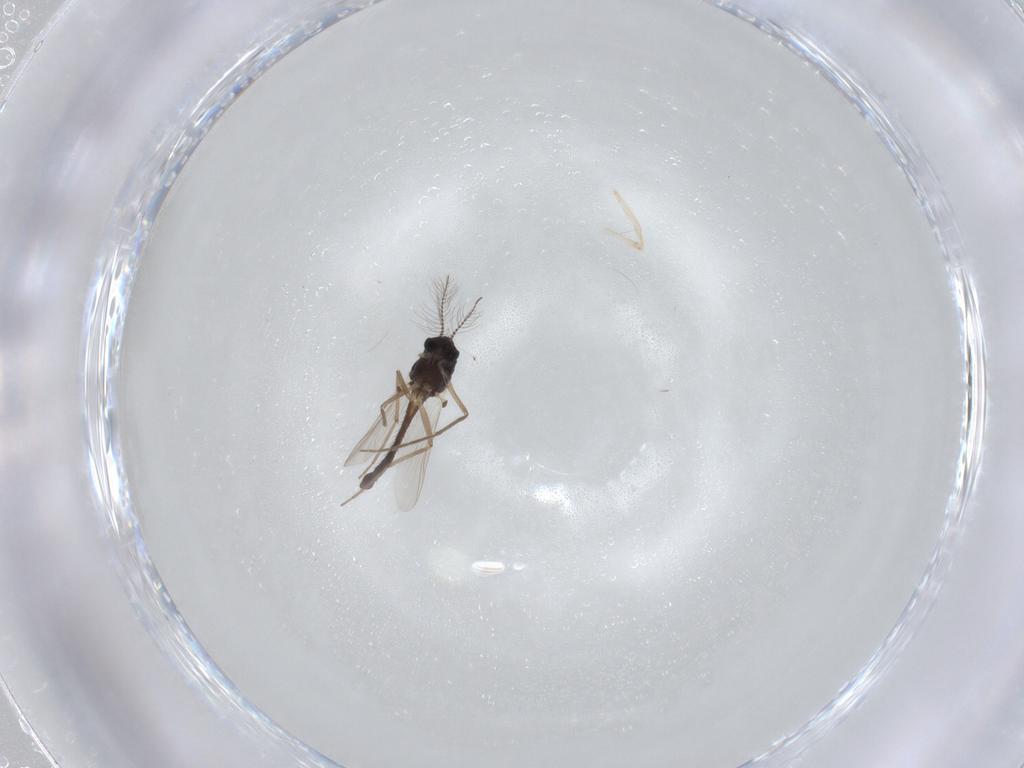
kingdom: Animalia
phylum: Arthropoda
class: Insecta
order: Diptera
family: Chironomidae
